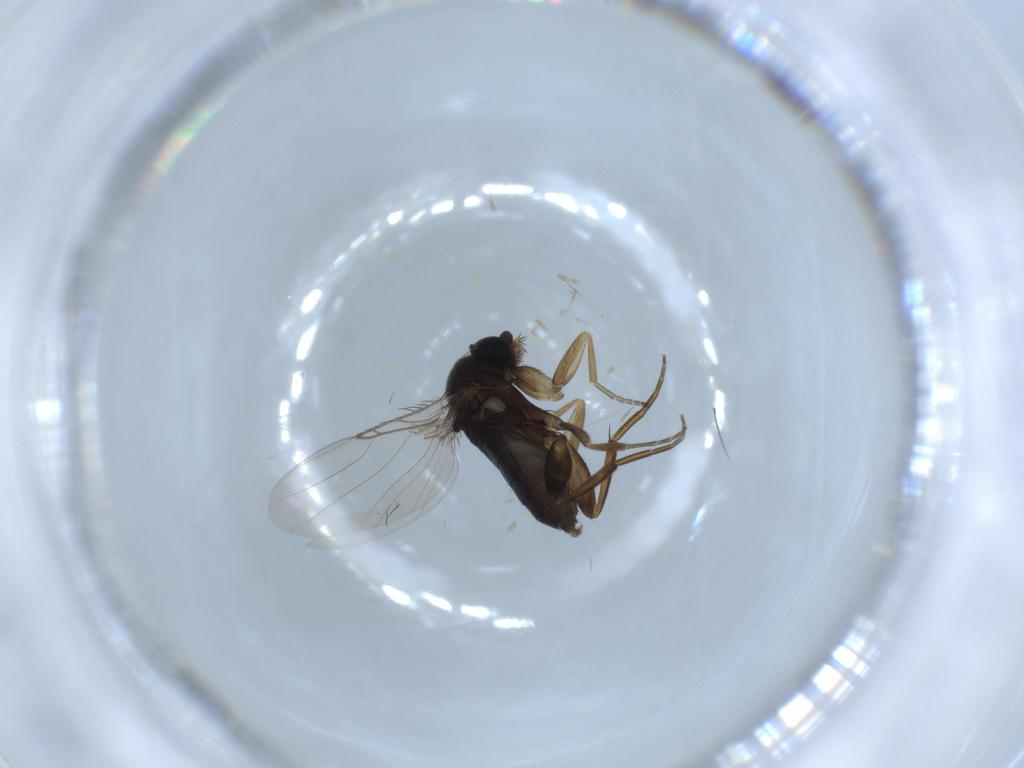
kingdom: Animalia
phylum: Arthropoda
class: Insecta
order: Diptera
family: Phoridae
